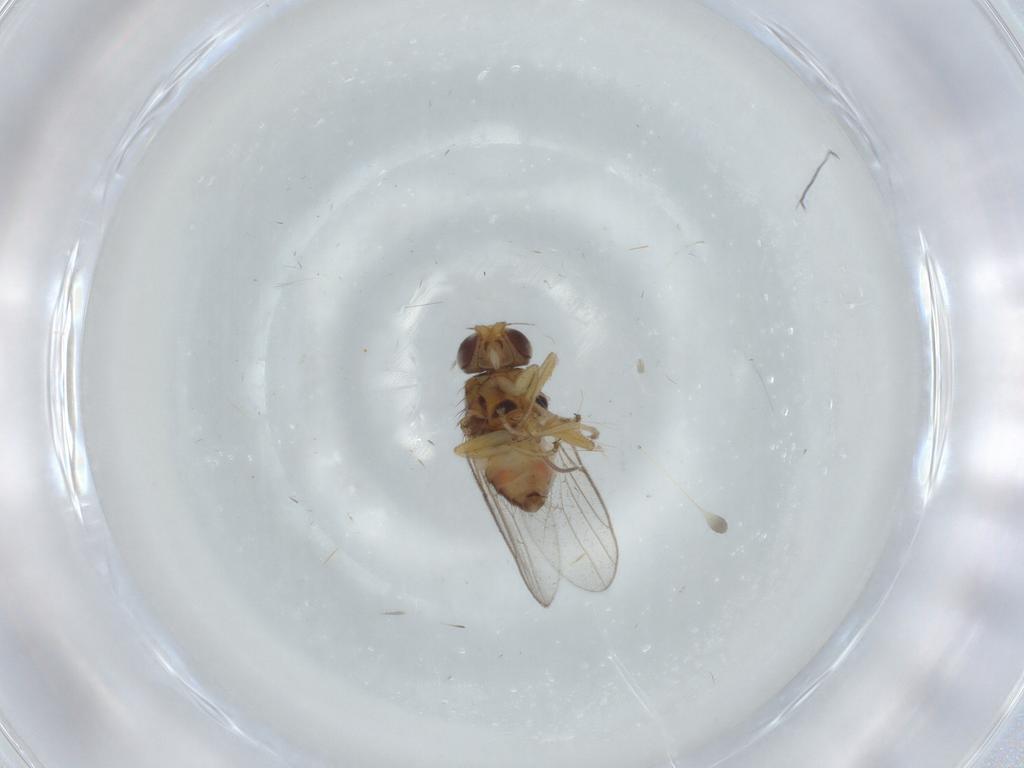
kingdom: Animalia
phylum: Arthropoda
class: Insecta
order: Diptera
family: Chloropidae
